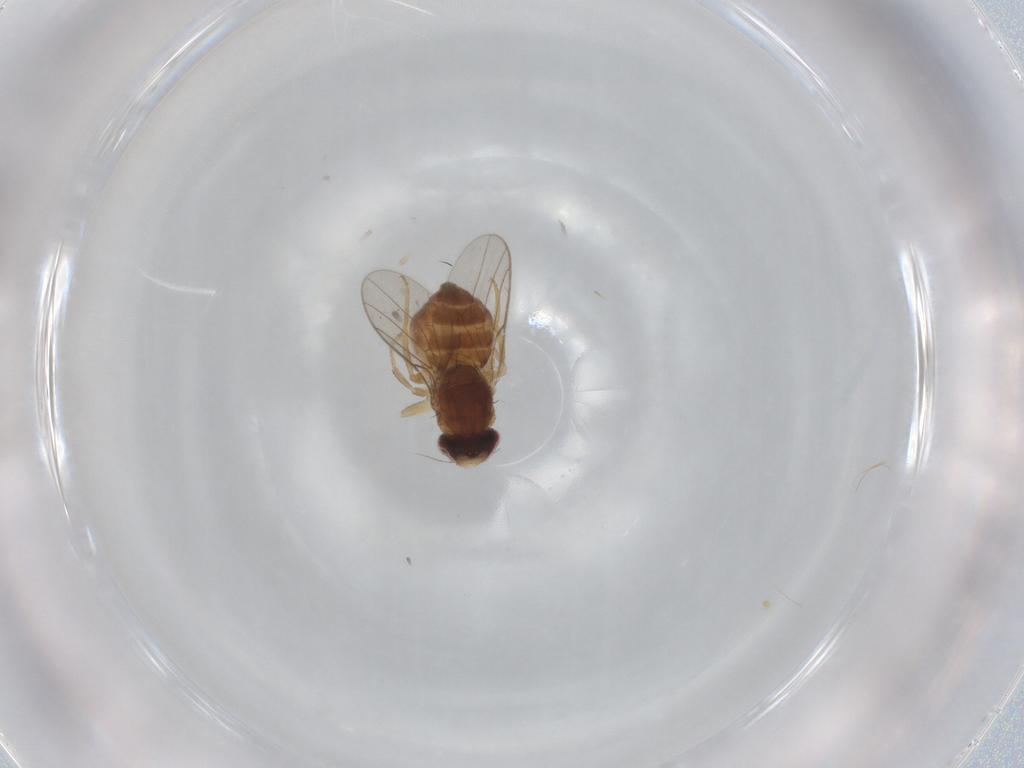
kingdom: Animalia
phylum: Arthropoda
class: Insecta
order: Diptera
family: Chloropidae
